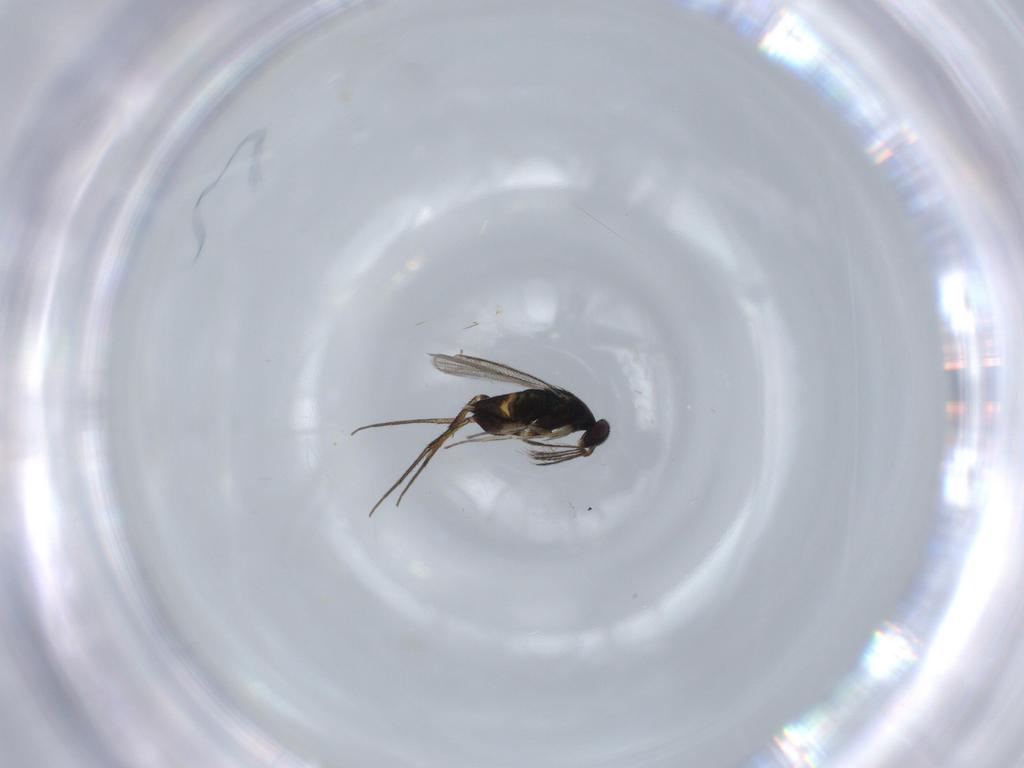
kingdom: Animalia
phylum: Arthropoda
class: Insecta
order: Hymenoptera
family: Eulophidae
